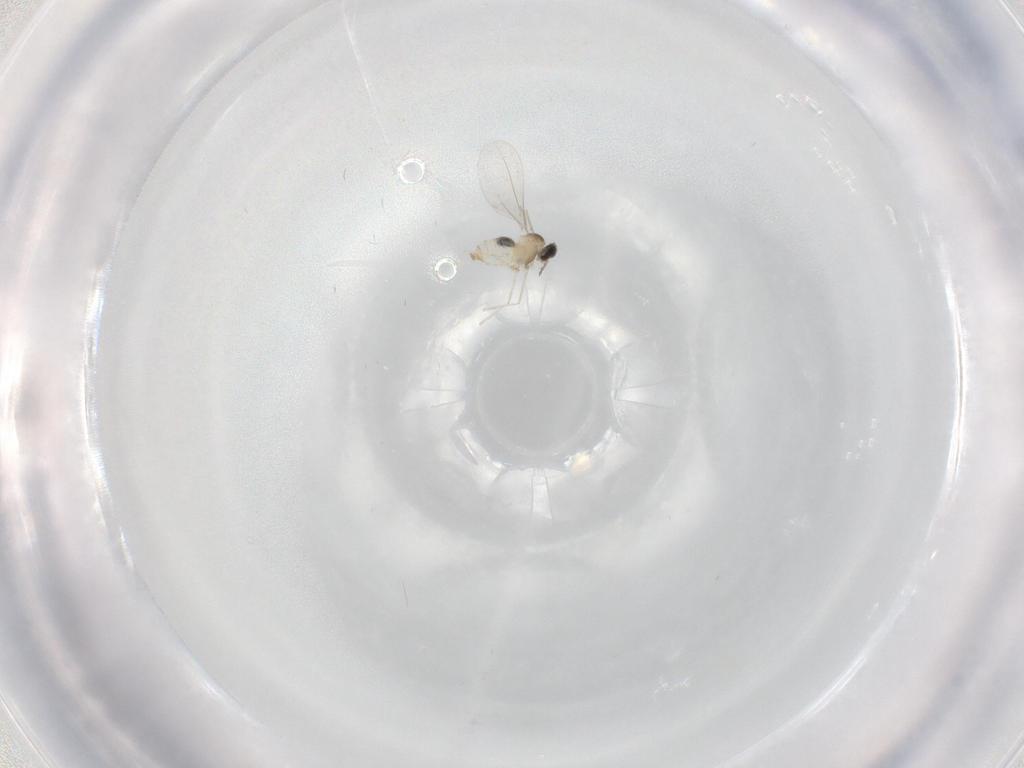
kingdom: Animalia
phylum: Arthropoda
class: Insecta
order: Diptera
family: Cecidomyiidae
